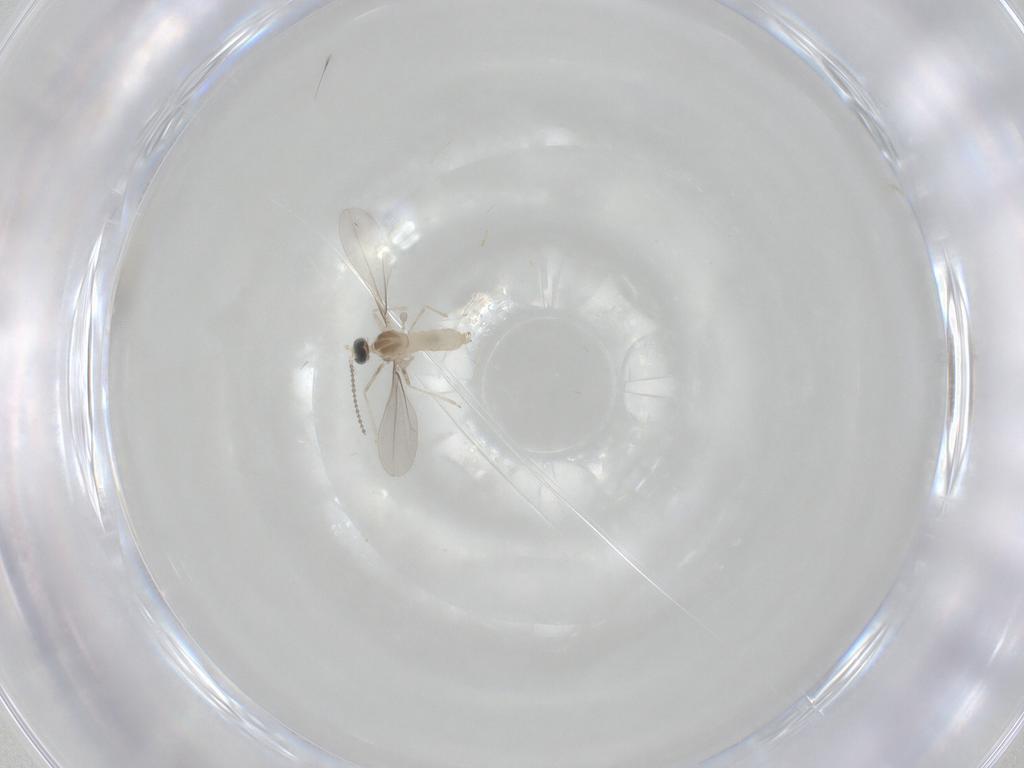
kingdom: Animalia
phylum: Arthropoda
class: Insecta
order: Diptera
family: Cecidomyiidae
